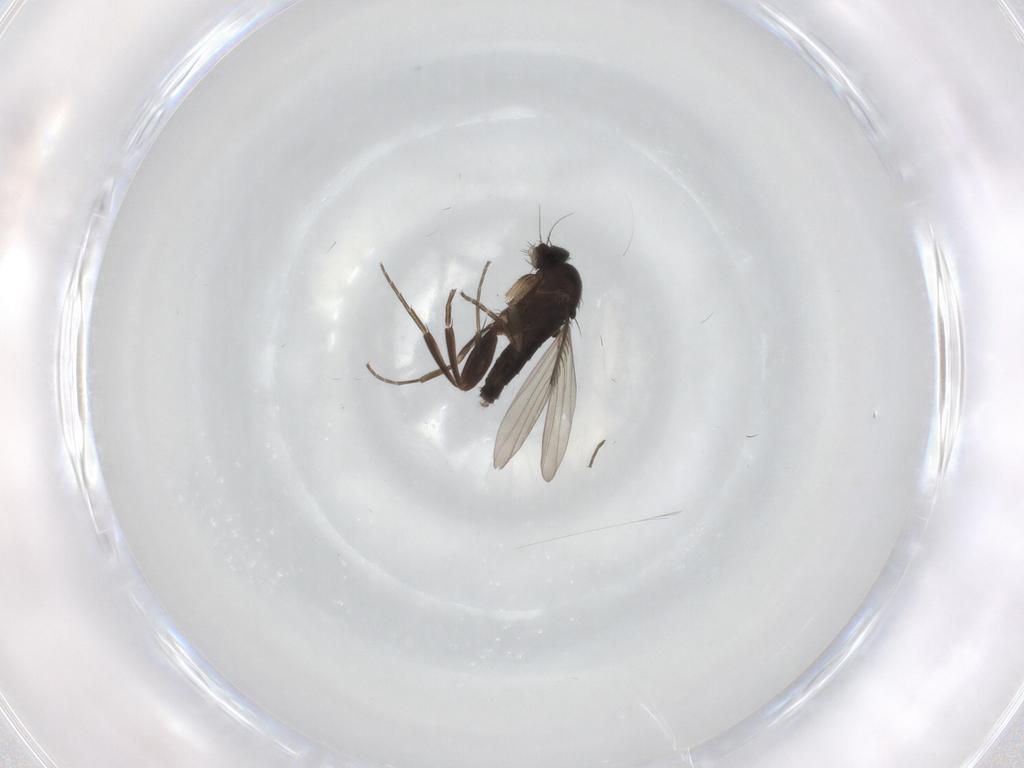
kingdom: Animalia
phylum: Arthropoda
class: Insecta
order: Diptera
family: Phoridae
